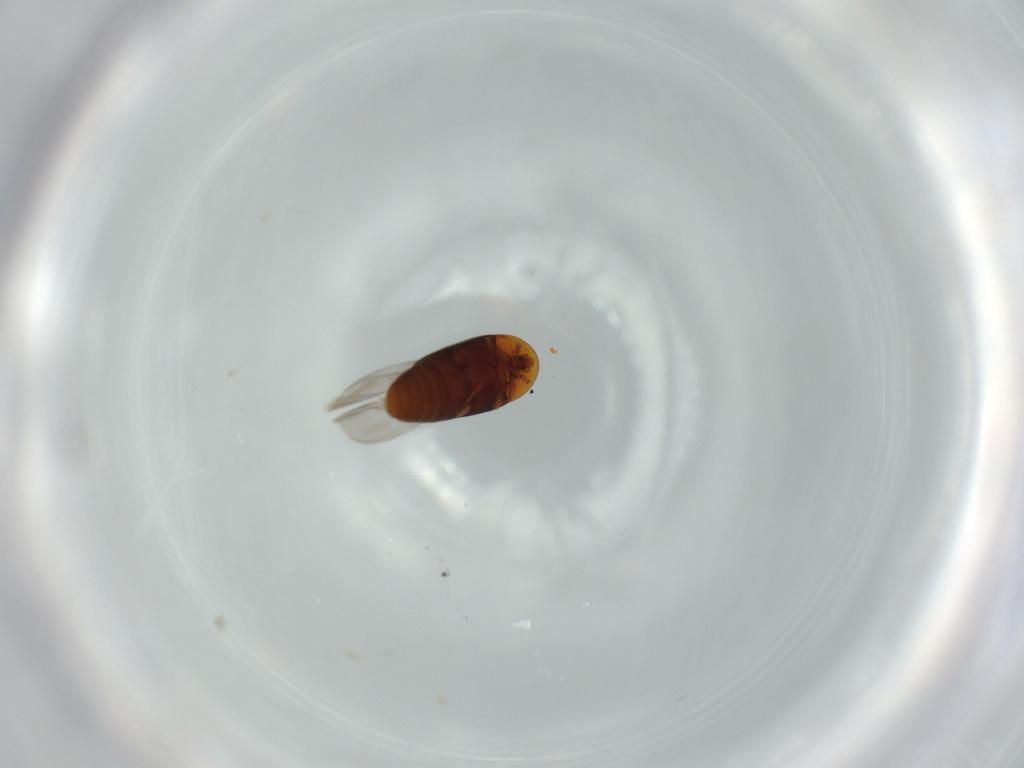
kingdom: Animalia
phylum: Arthropoda
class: Insecta
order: Coleoptera
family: Corylophidae
